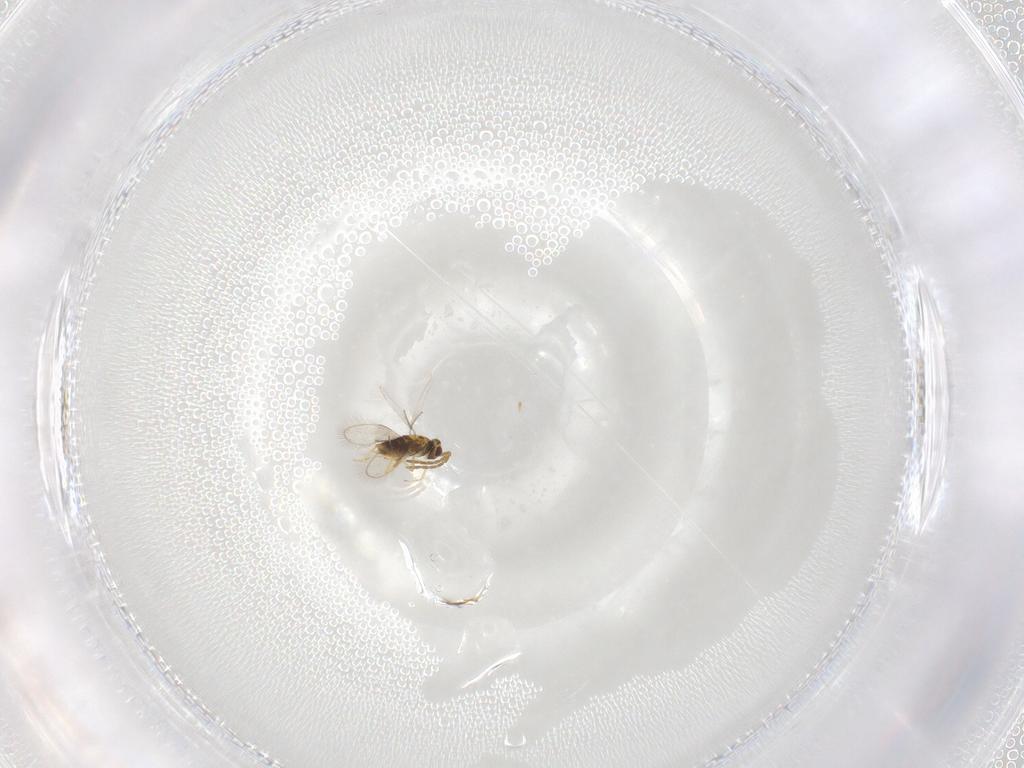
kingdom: Animalia
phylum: Arthropoda
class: Insecta
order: Hymenoptera
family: Aphelinidae
